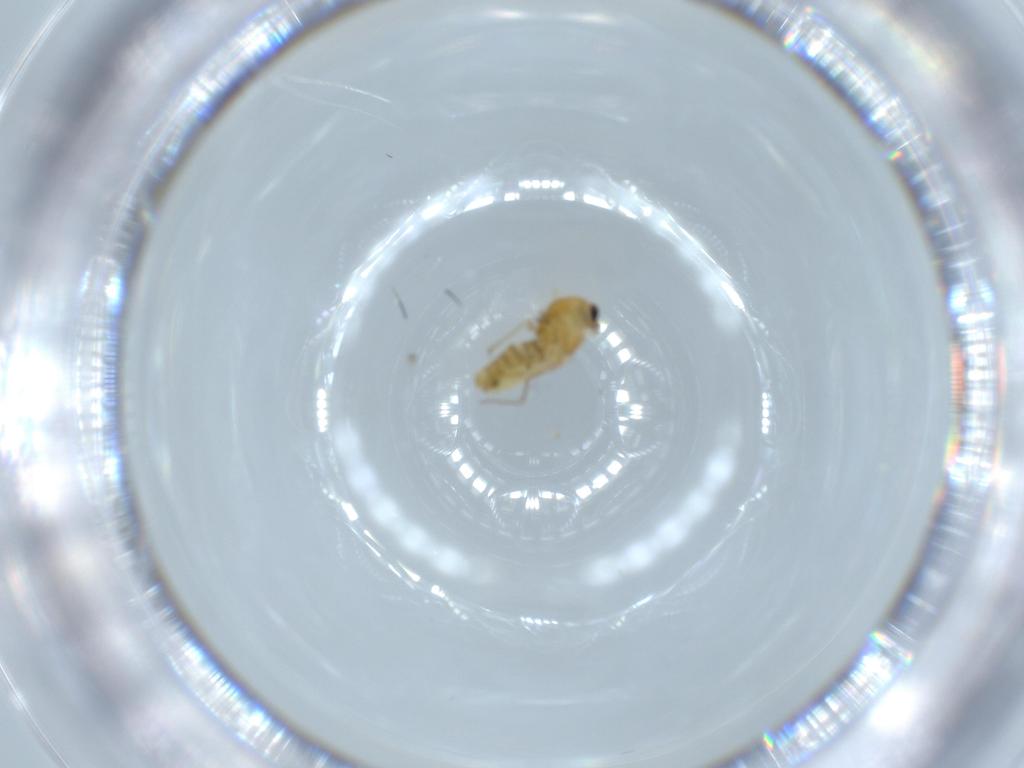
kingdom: Animalia
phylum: Arthropoda
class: Insecta
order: Diptera
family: Chironomidae
